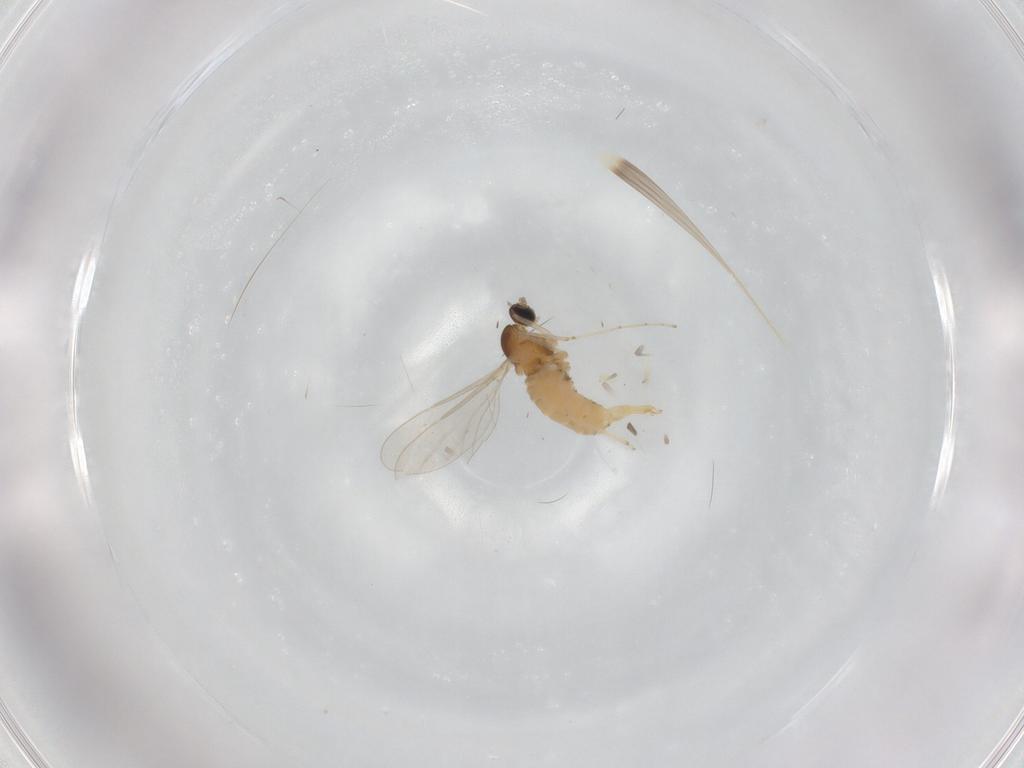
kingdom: Animalia
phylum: Arthropoda
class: Insecta
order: Diptera
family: Cecidomyiidae
